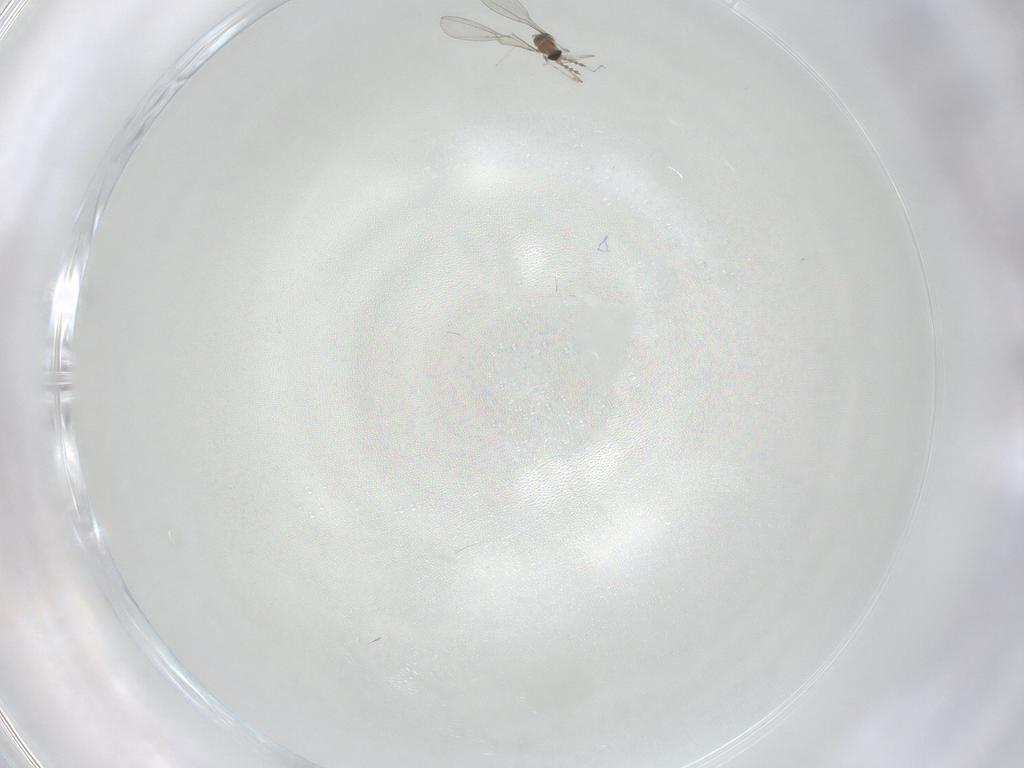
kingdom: Animalia
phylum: Arthropoda
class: Insecta
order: Diptera
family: Cecidomyiidae
